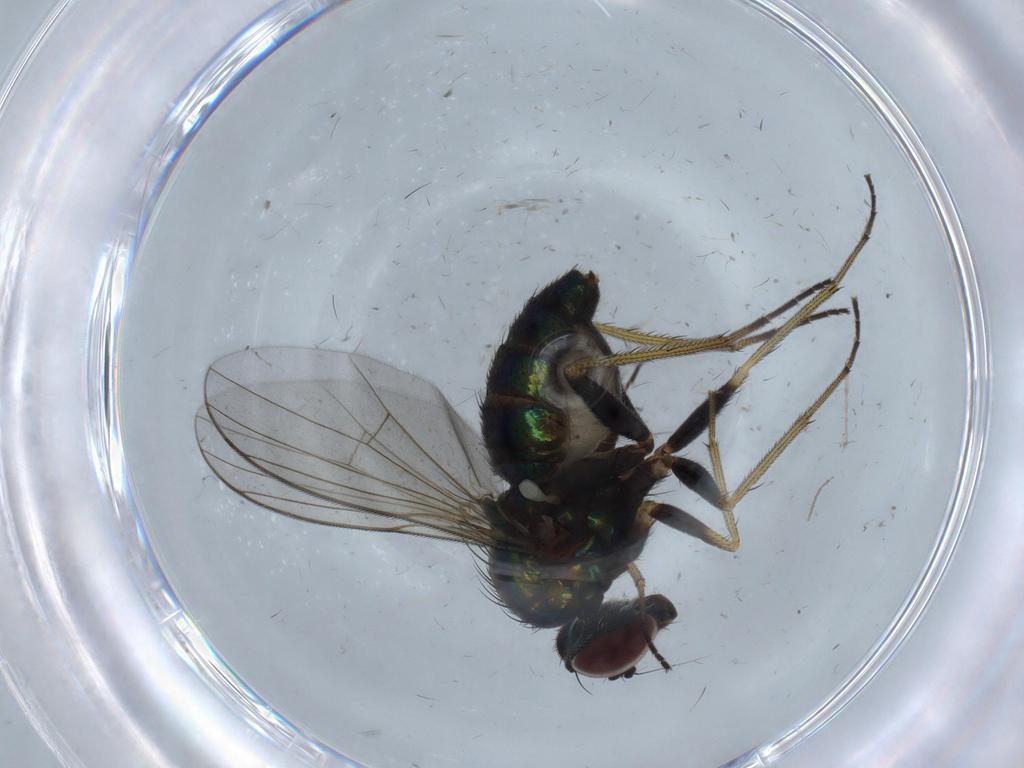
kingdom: Animalia
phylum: Arthropoda
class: Insecta
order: Diptera
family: Dolichopodidae
